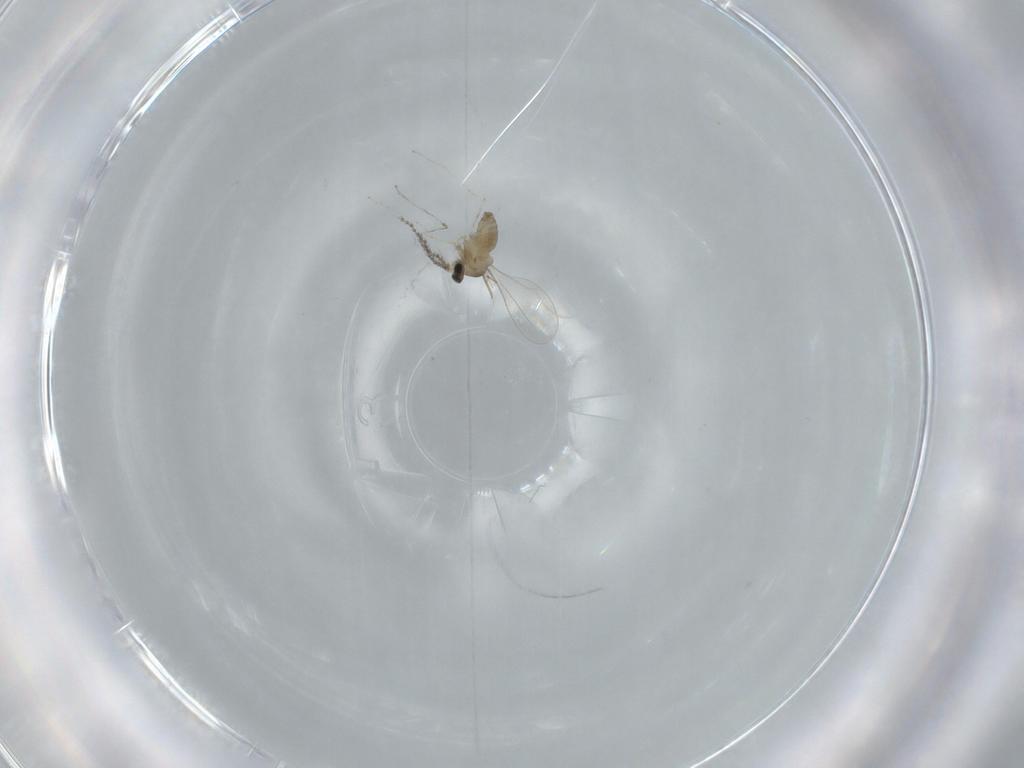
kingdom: Animalia
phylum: Arthropoda
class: Insecta
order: Diptera
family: Cecidomyiidae
